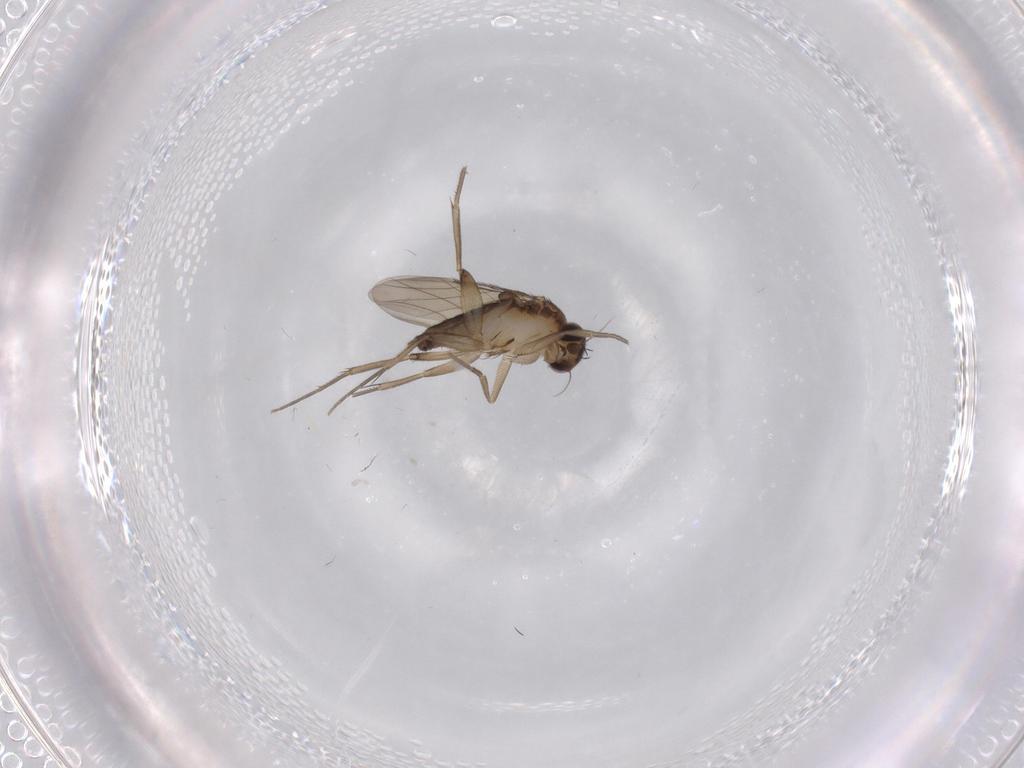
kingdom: Animalia
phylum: Arthropoda
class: Insecta
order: Diptera
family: Phoridae
